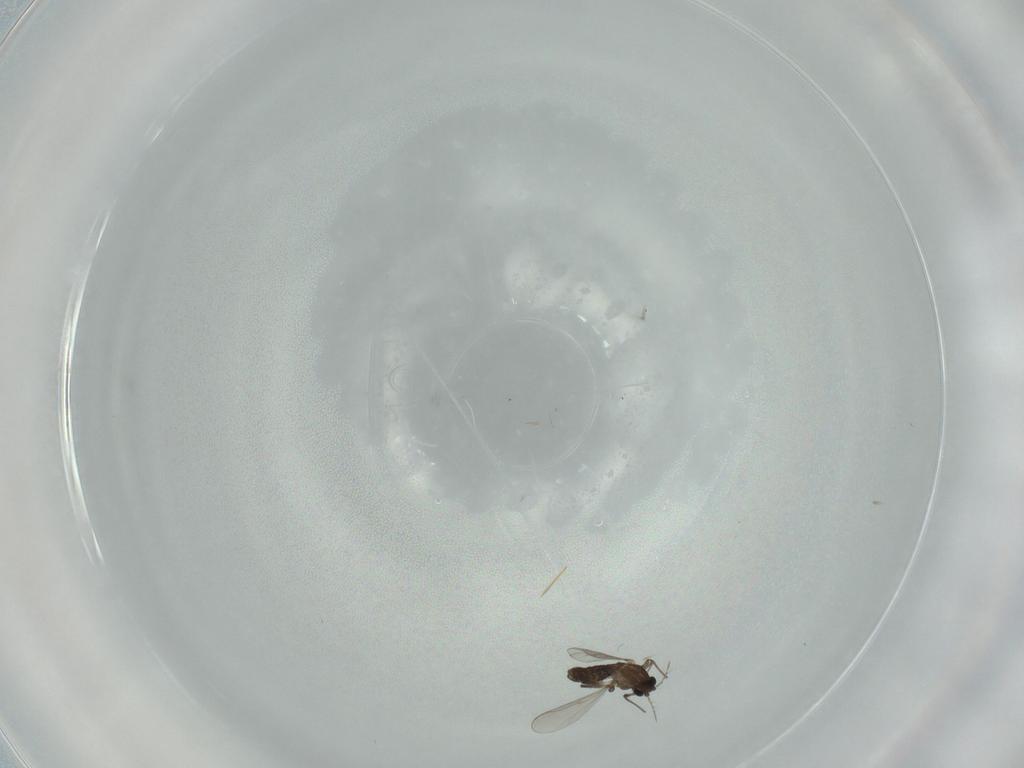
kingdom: Animalia
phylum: Arthropoda
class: Insecta
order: Diptera
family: Chironomidae
